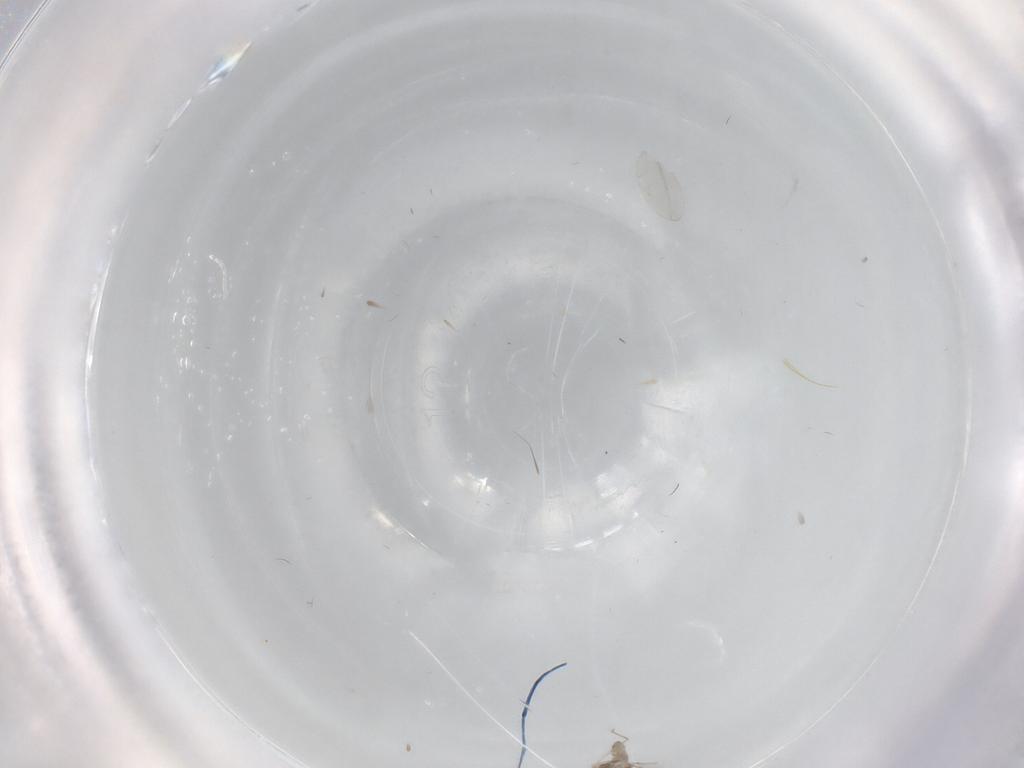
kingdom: Animalia
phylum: Arthropoda
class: Insecta
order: Diptera
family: Cecidomyiidae
